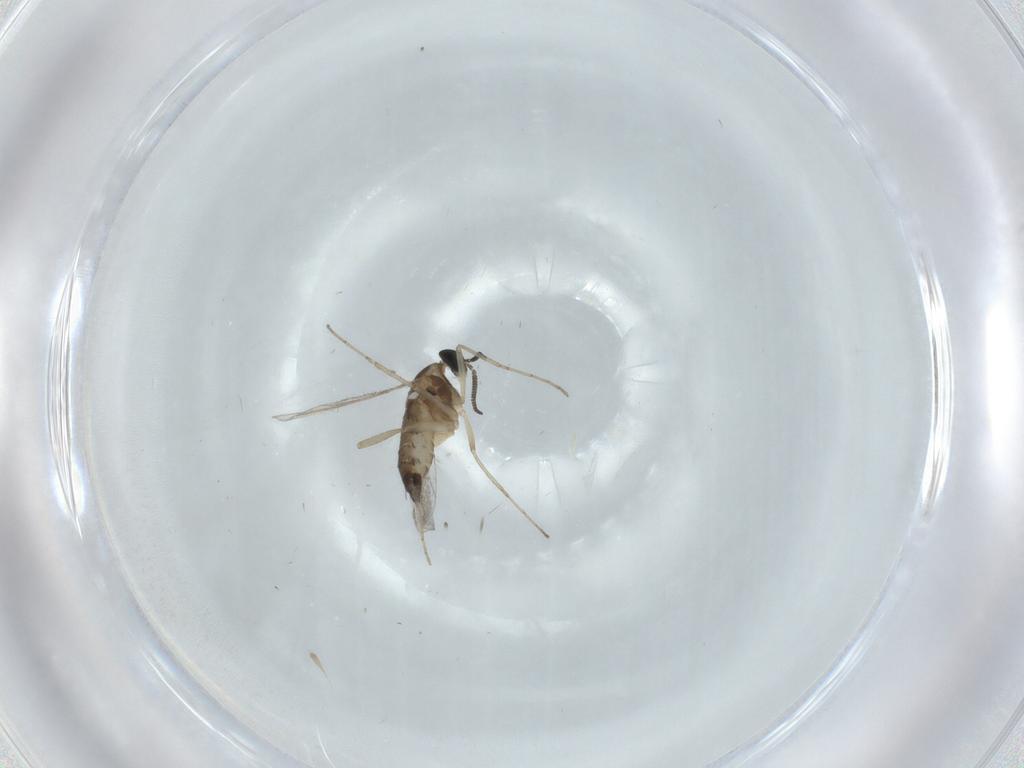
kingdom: Animalia
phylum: Arthropoda
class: Insecta
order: Diptera
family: Cecidomyiidae
